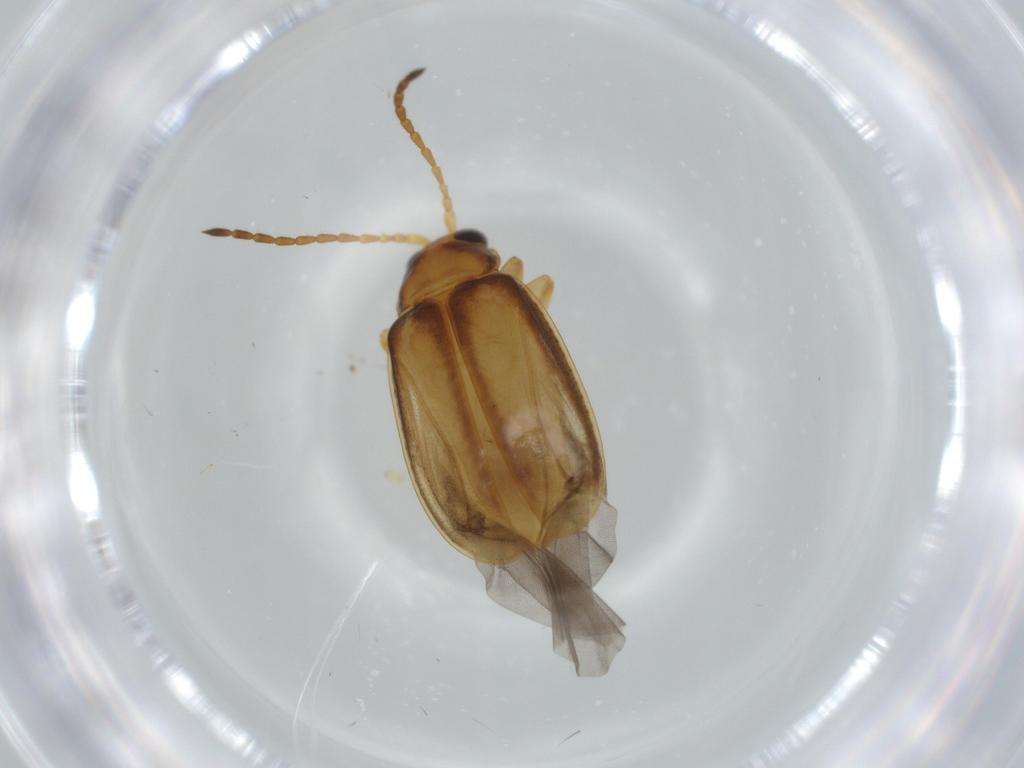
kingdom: Animalia
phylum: Arthropoda
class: Insecta
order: Coleoptera
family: Chrysomelidae
